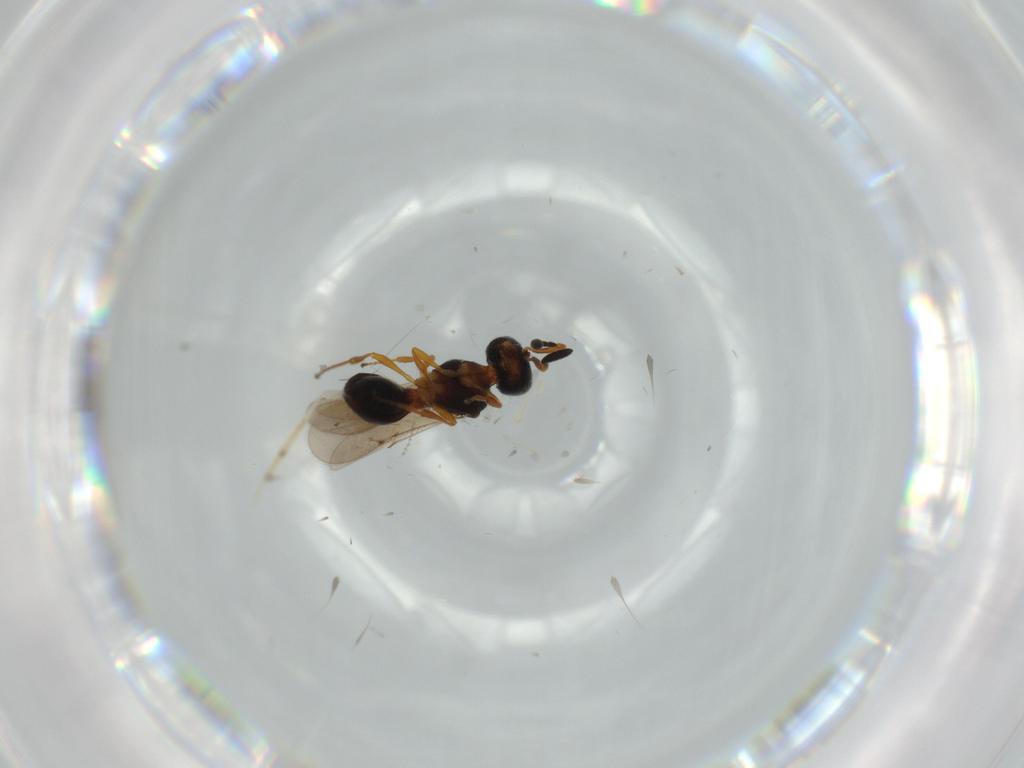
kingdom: Animalia
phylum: Arthropoda
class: Insecta
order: Hymenoptera
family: Scelionidae
